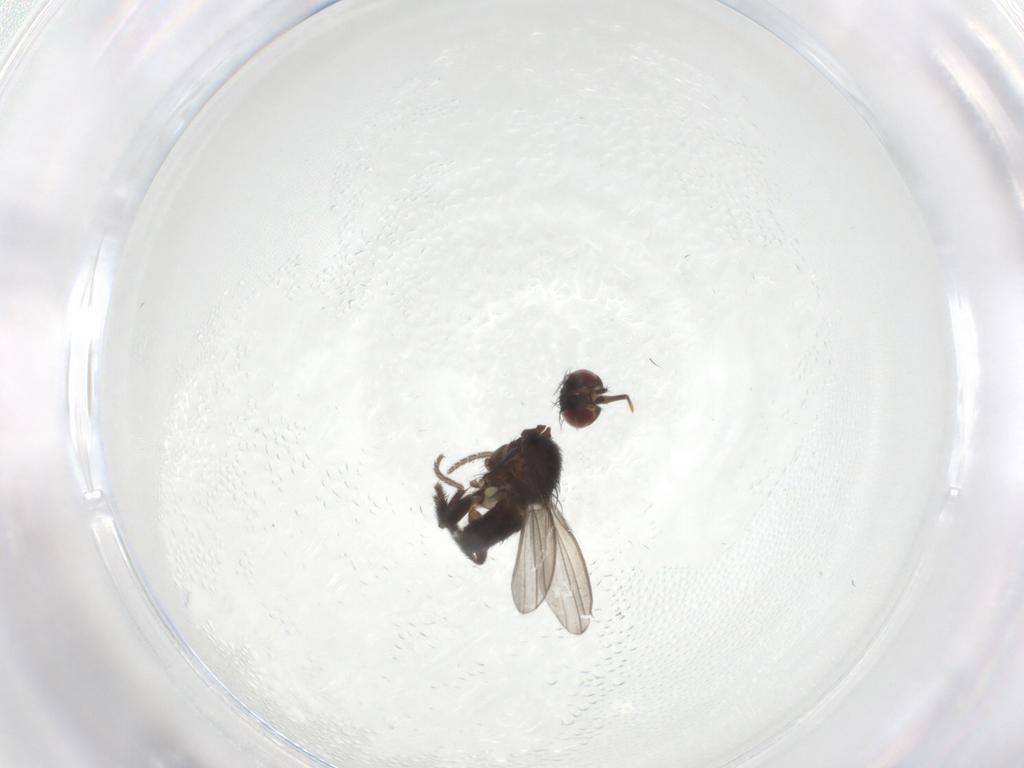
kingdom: Animalia
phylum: Arthropoda
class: Insecta
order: Diptera
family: Milichiidae
